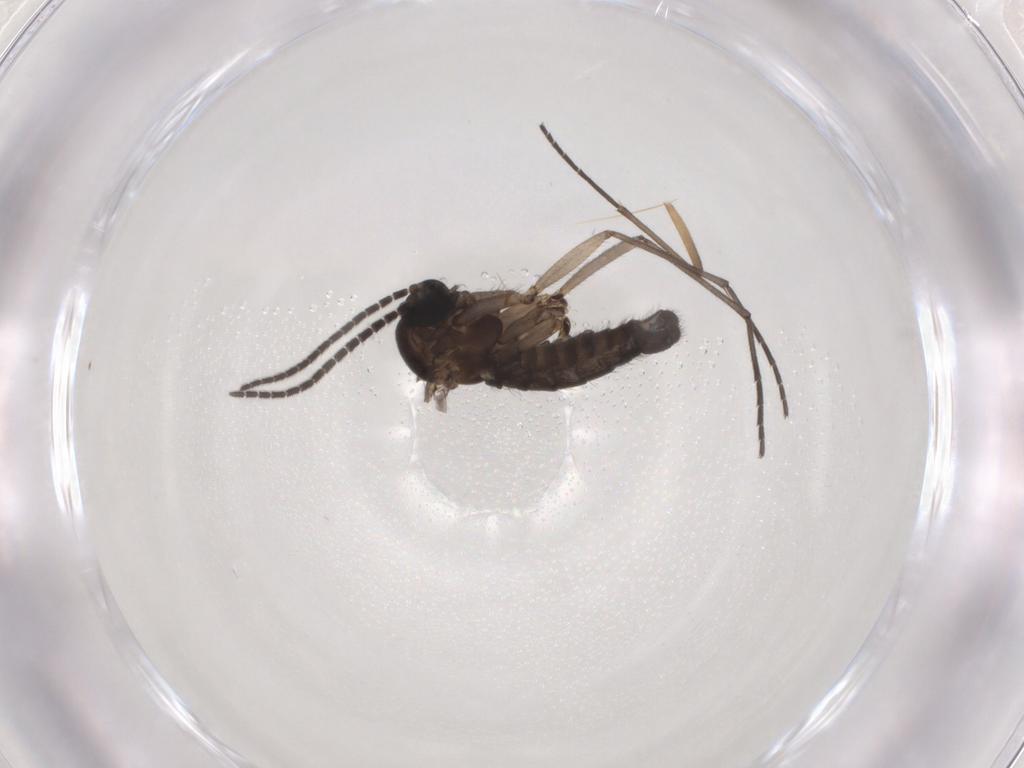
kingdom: Animalia
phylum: Arthropoda
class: Insecta
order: Diptera
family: Sciaridae
